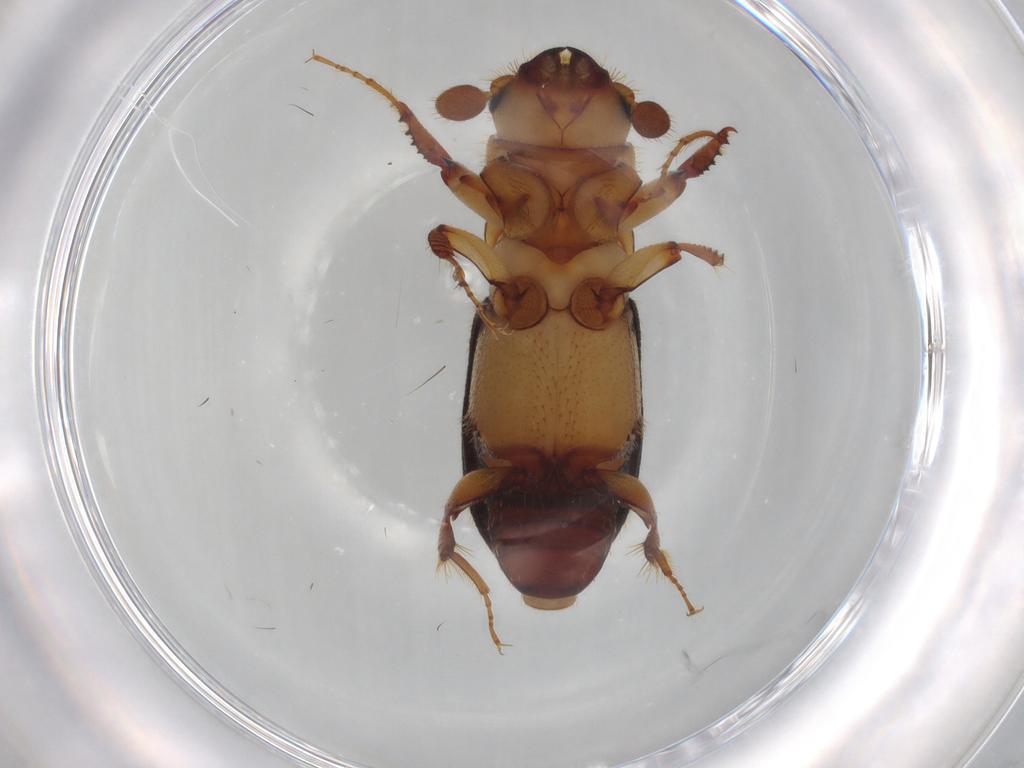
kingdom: Animalia
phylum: Arthropoda
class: Insecta
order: Coleoptera
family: Curculionidae
